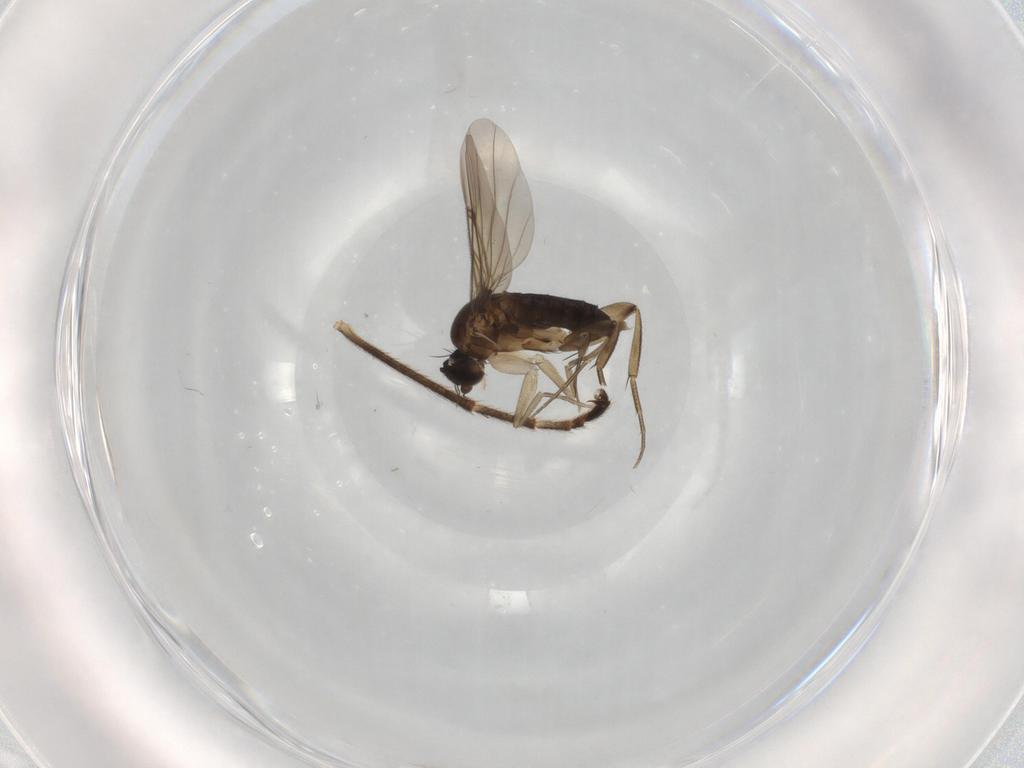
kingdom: Animalia
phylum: Arthropoda
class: Insecta
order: Diptera
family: Phoridae
